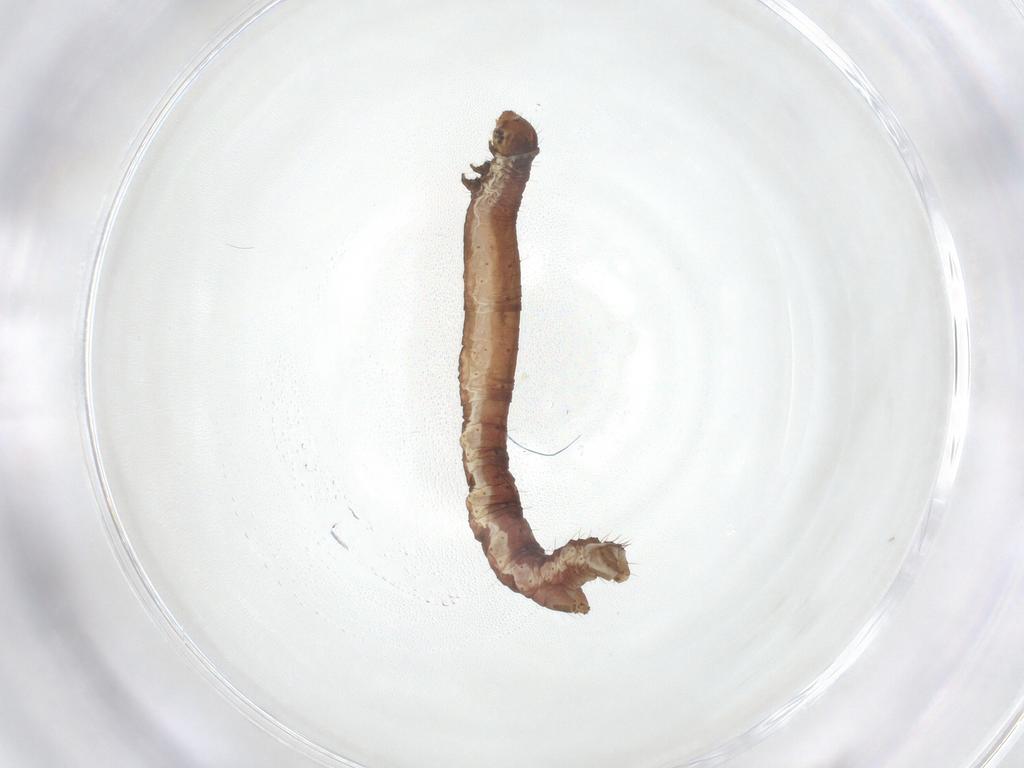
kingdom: Animalia
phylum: Arthropoda
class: Insecta
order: Lepidoptera
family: Geometridae
